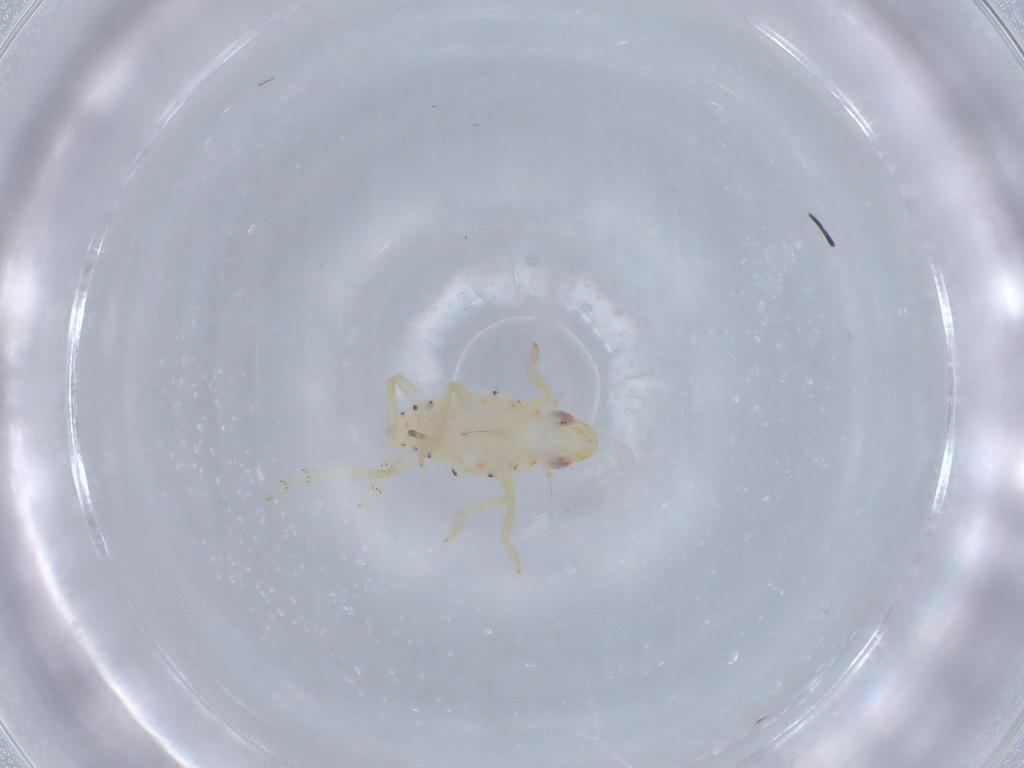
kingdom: Animalia
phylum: Arthropoda
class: Insecta
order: Hemiptera
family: Tropiduchidae
